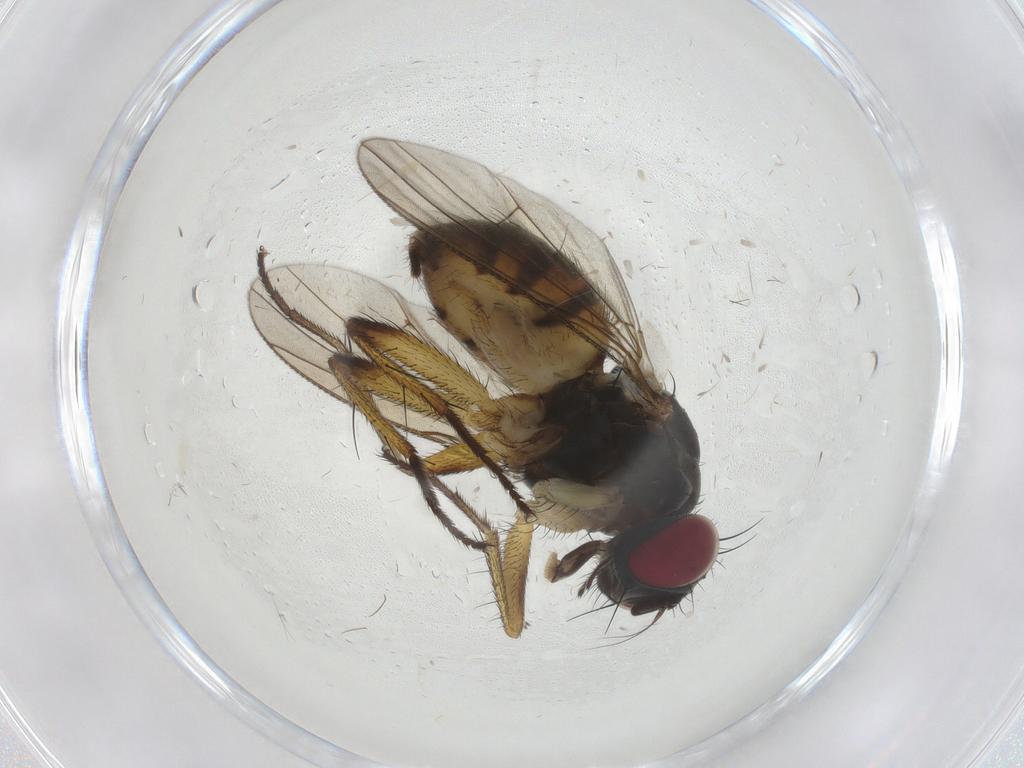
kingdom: Animalia
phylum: Arthropoda
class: Insecta
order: Diptera
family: Muscidae
